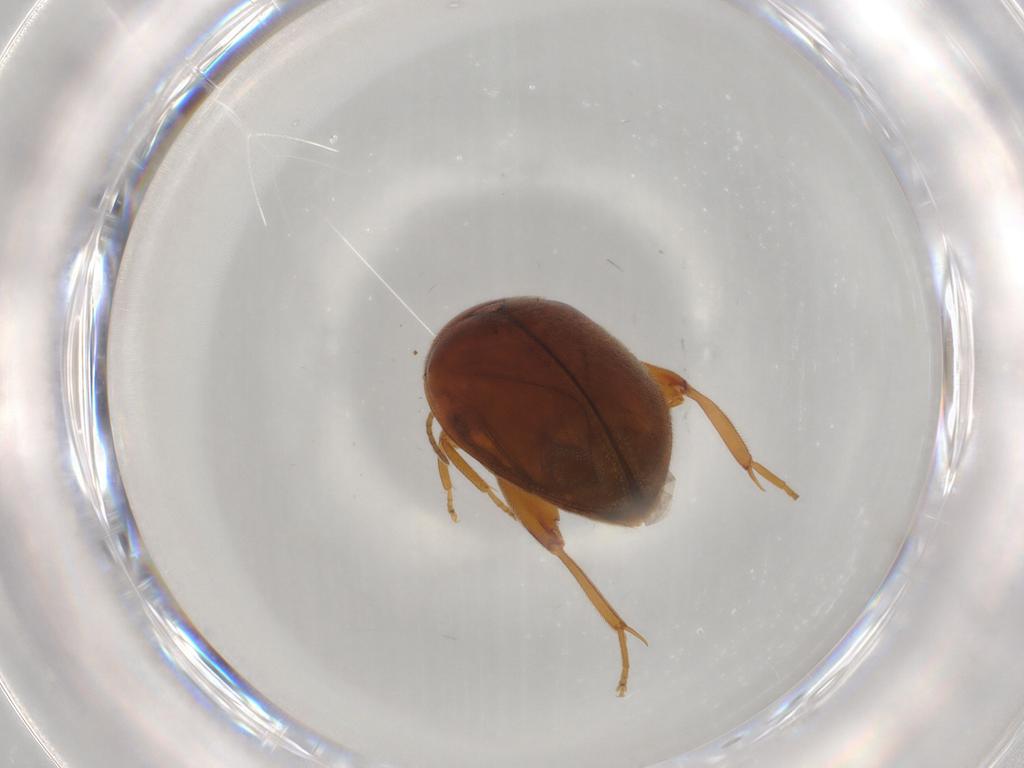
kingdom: Animalia
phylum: Arthropoda
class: Insecta
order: Coleoptera
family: Scirtidae
